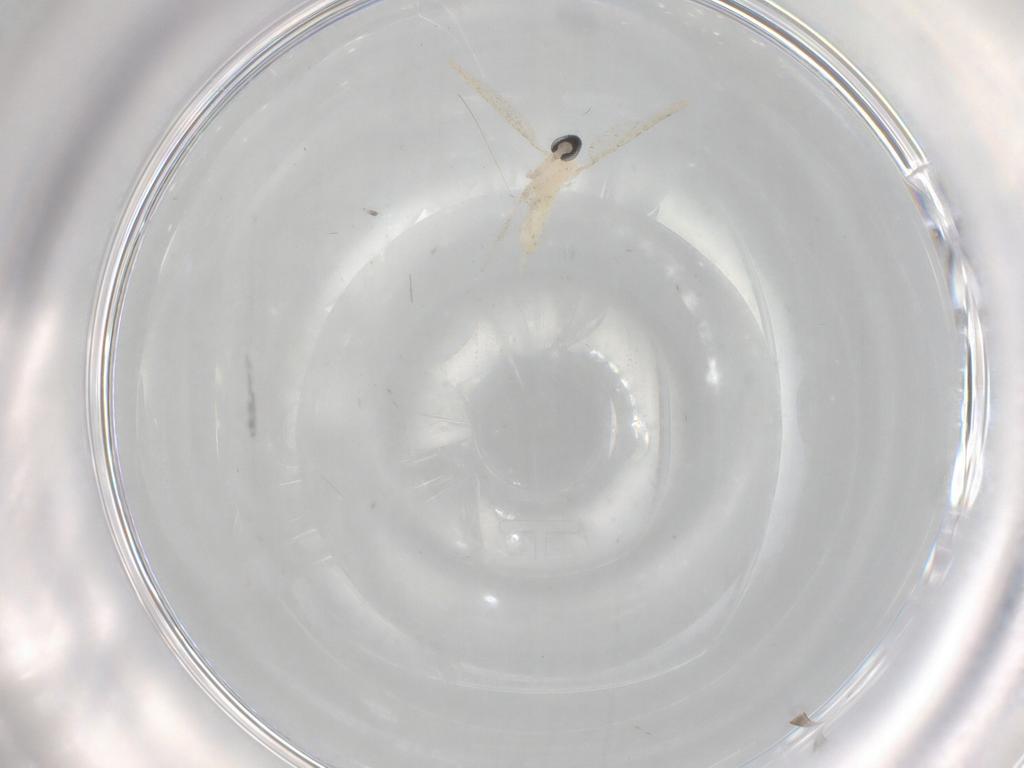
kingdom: Animalia
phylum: Arthropoda
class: Insecta
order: Diptera
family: Cecidomyiidae
